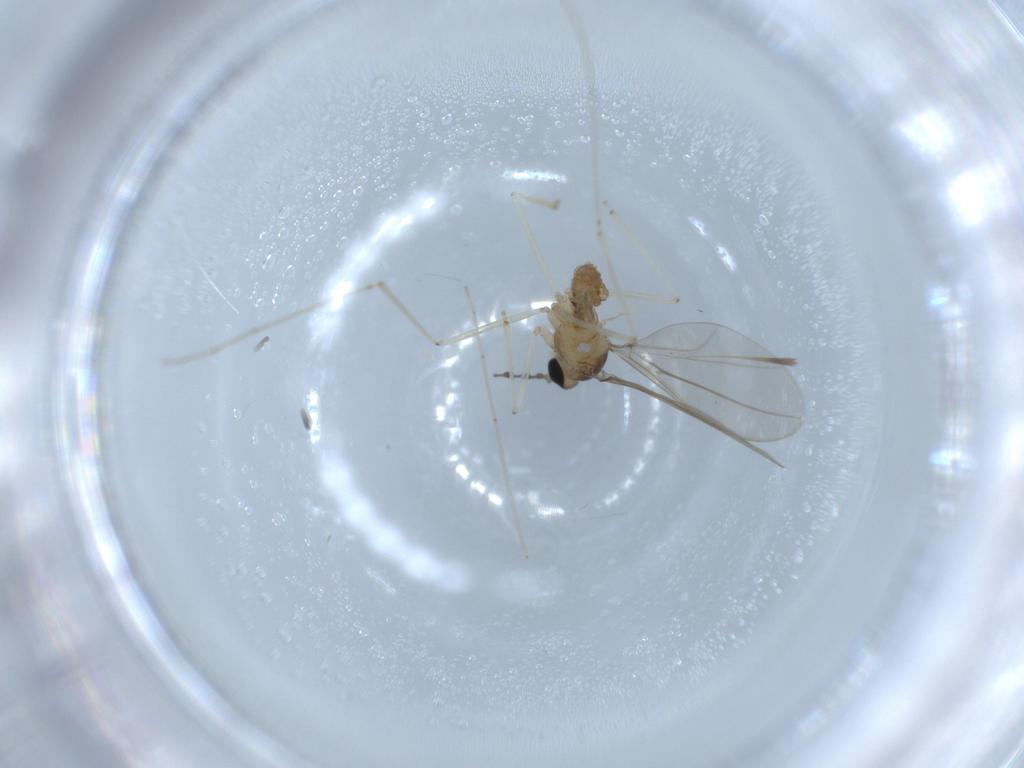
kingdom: Animalia
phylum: Arthropoda
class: Insecta
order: Diptera
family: Cecidomyiidae
